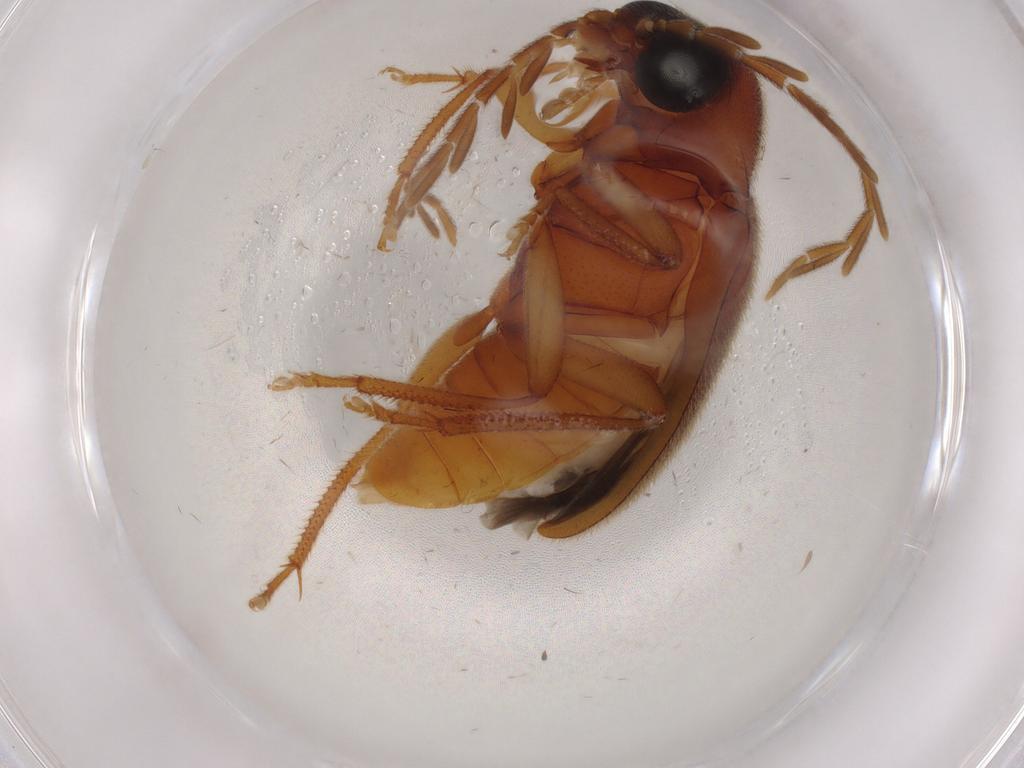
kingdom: Animalia
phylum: Arthropoda
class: Insecta
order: Coleoptera
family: Ptilodactylidae
